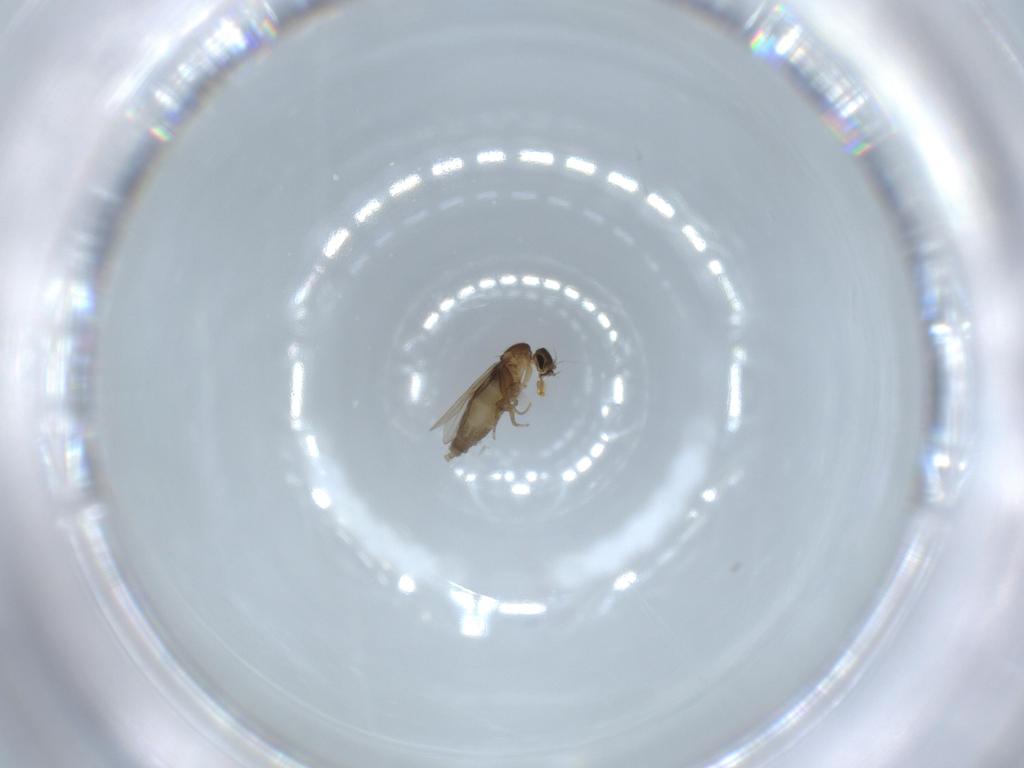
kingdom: Animalia
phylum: Arthropoda
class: Insecta
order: Diptera
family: Phoridae
